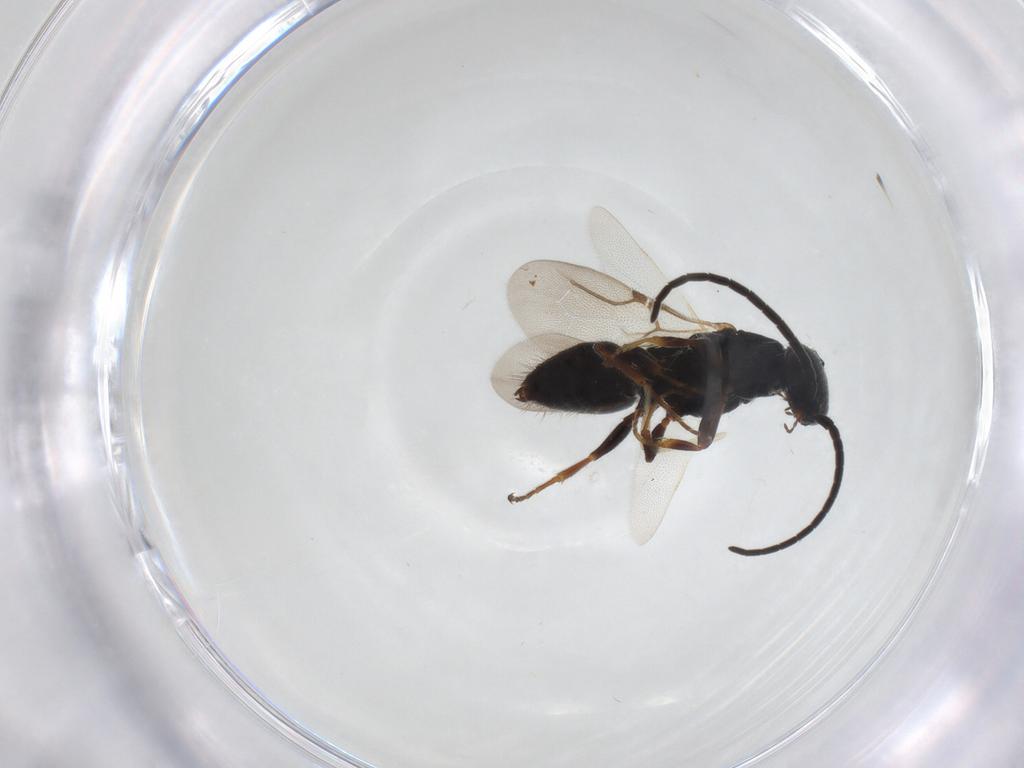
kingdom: Animalia
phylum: Arthropoda
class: Insecta
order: Hymenoptera
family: Bethylidae
